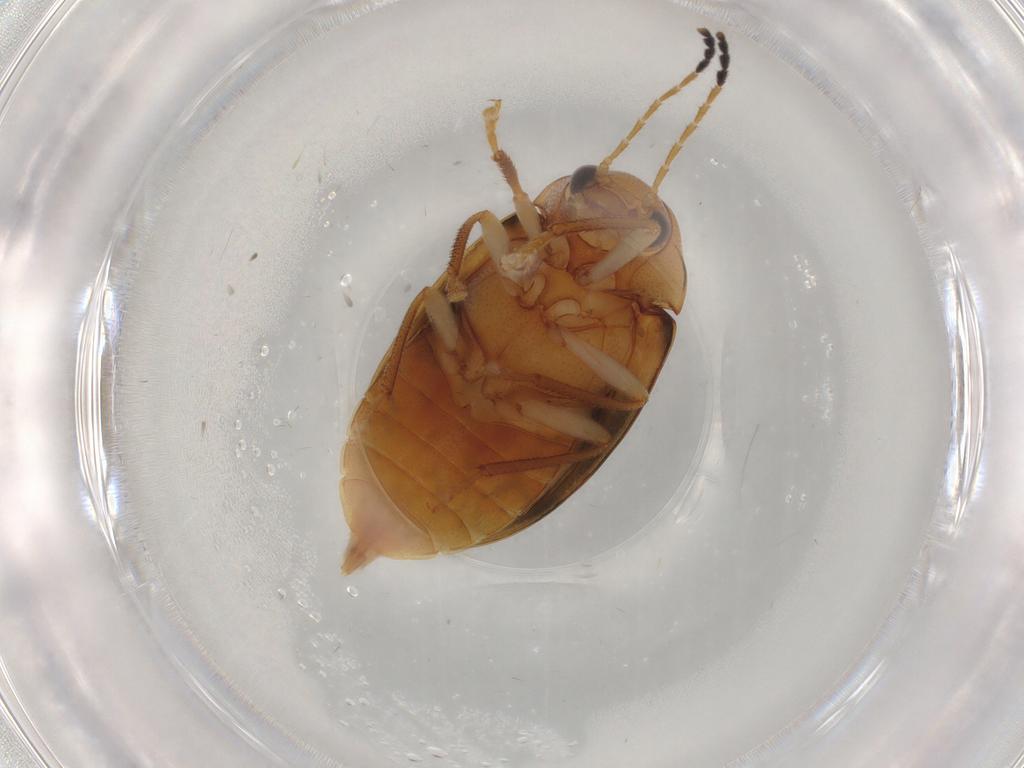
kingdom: Animalia
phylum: Arthropoda
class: Insecta
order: Coleoptera
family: Ptilodactylidae
